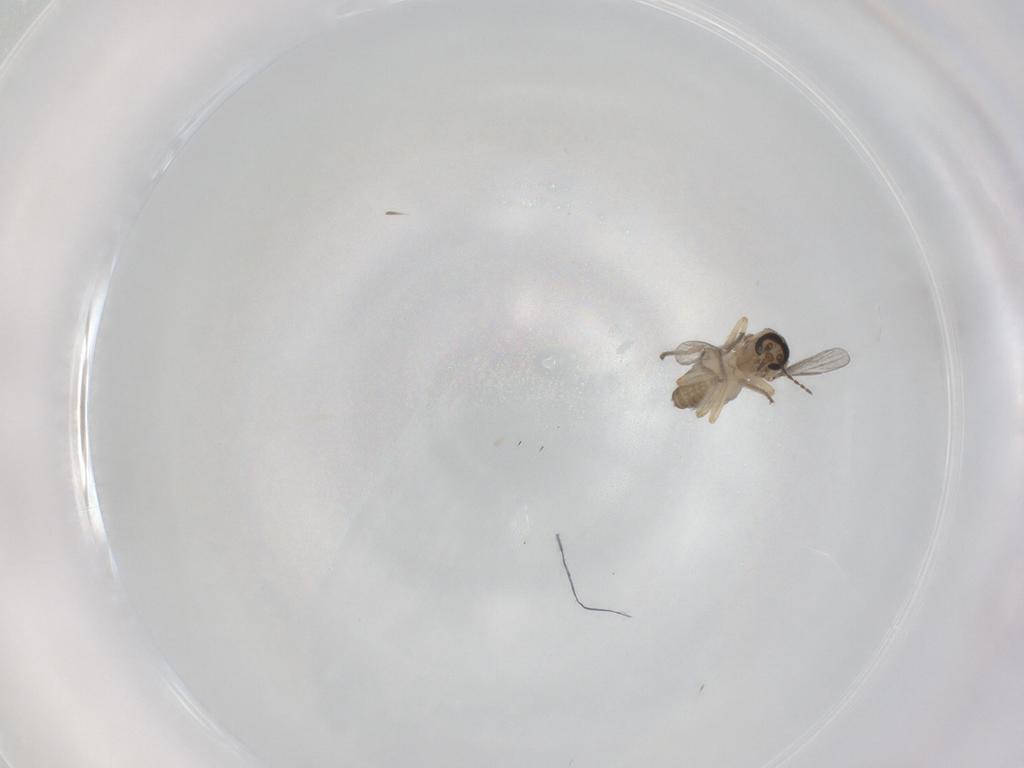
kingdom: Animalia
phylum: Arthropoda
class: Insecta
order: Diptera
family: Ceratopogonidae
